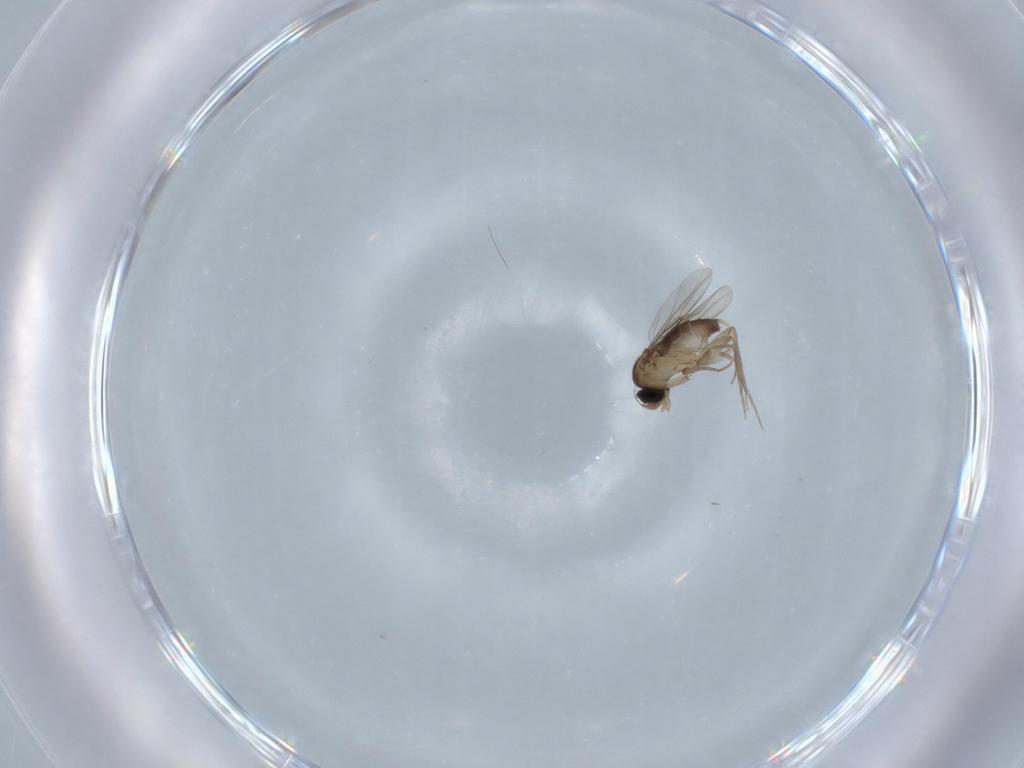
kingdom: Animalia
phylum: Arthropoda
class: Insecta
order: Diptera
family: Phoridae
